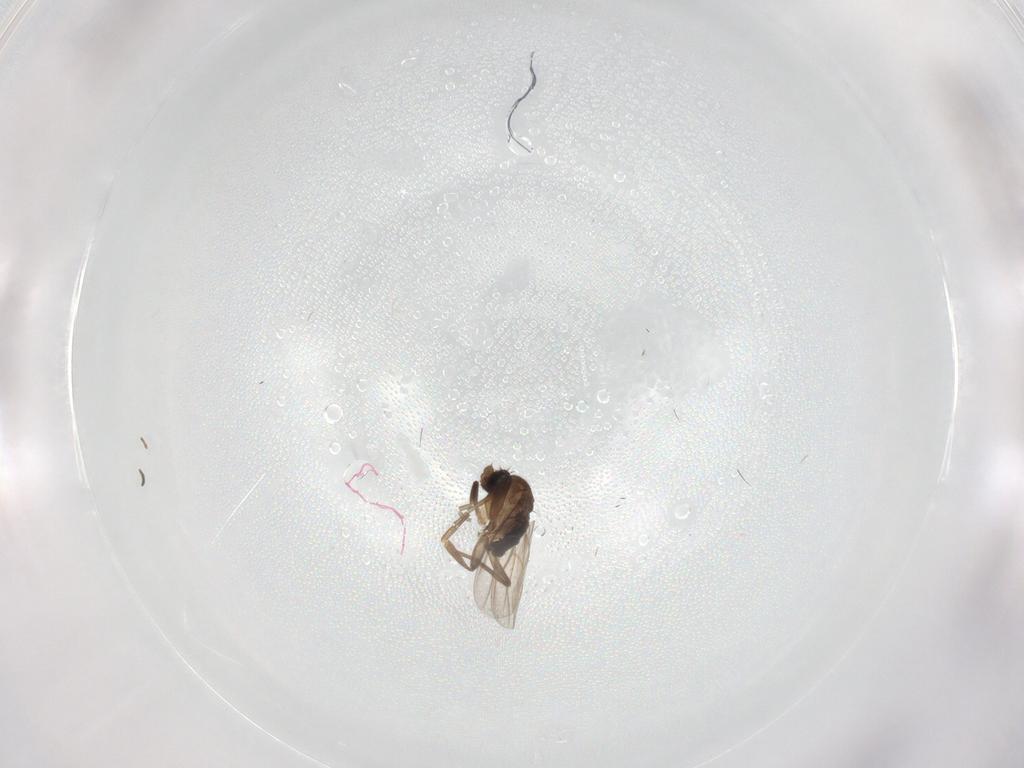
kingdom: Animalia
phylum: Arthropoda
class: Insecta
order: Diptera
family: Phoridae
